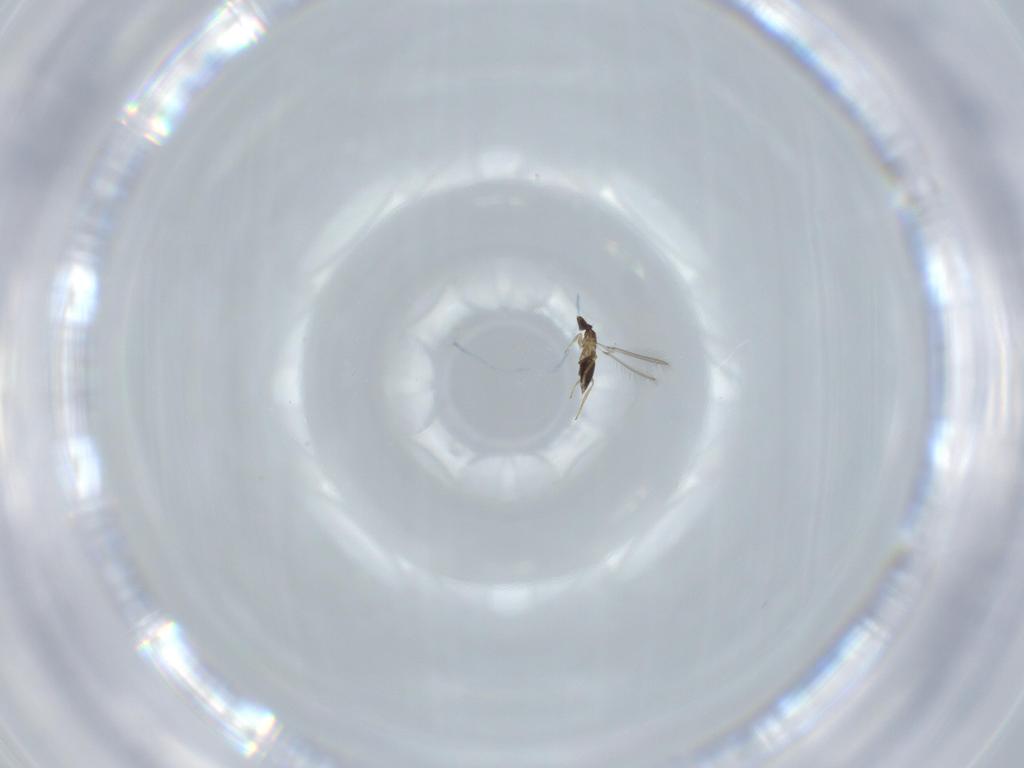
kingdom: Animalia
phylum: Arthropoda
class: Insecta
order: Hymenoptera
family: Mymaridae
